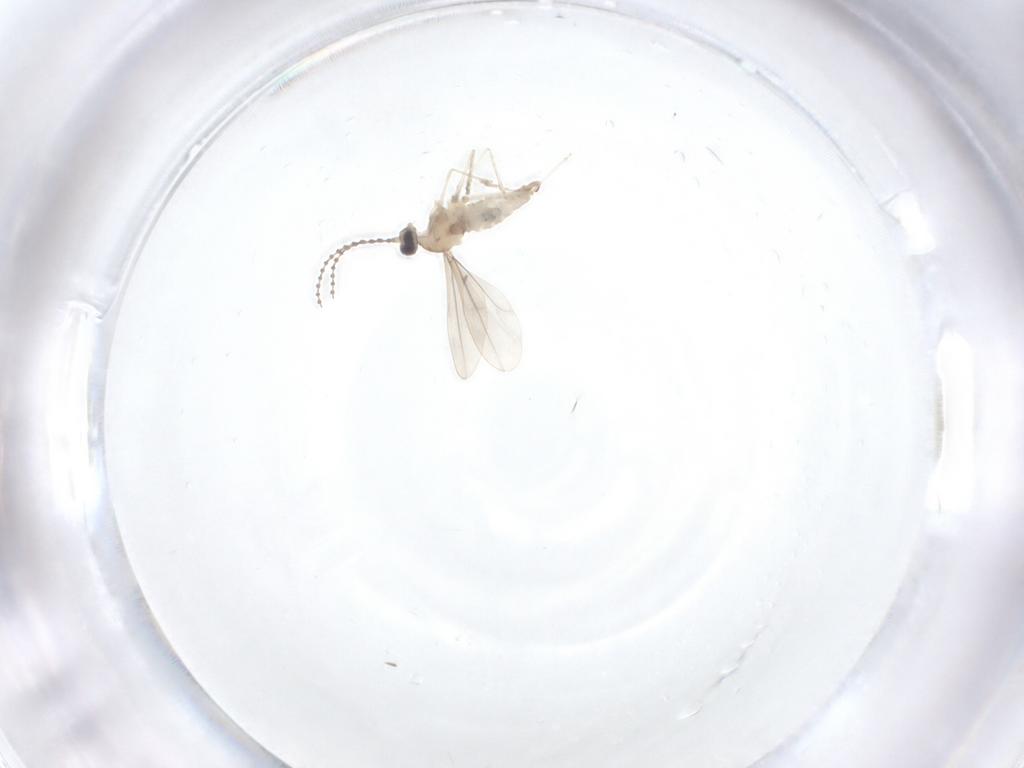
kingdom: Animalia
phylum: Arthropoda
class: Insecta
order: Diptera
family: Cecidomyiidae
